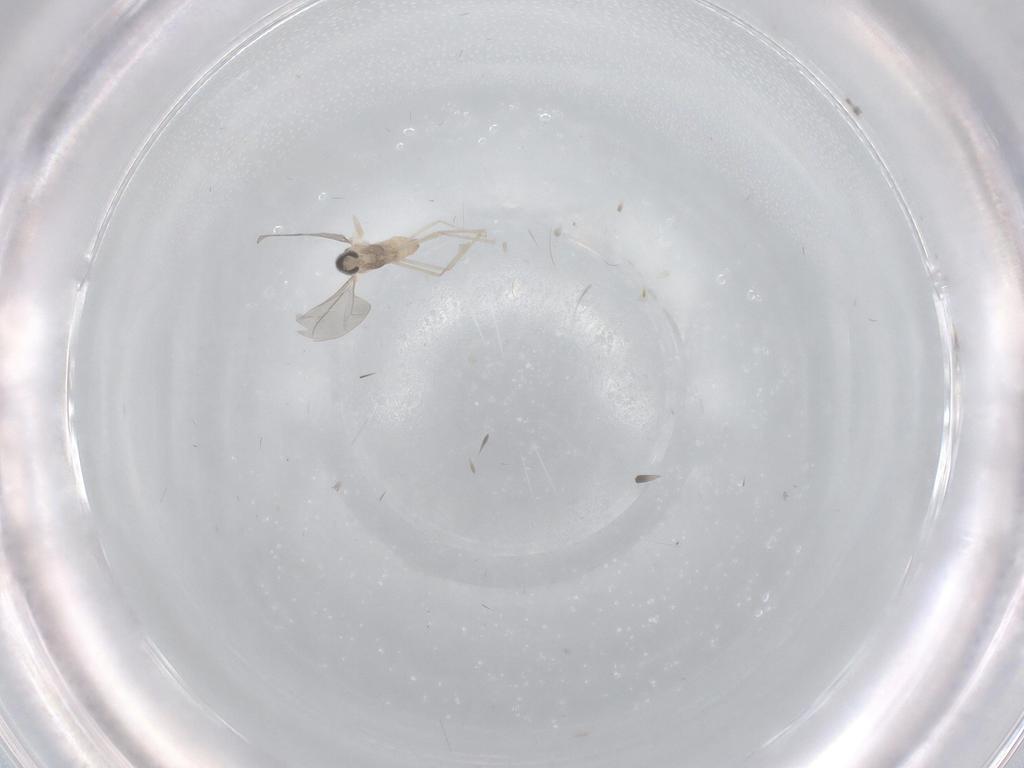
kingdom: Animalia
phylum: Arthropoda
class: Insecta
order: Diptera
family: Cecidomyiidae
